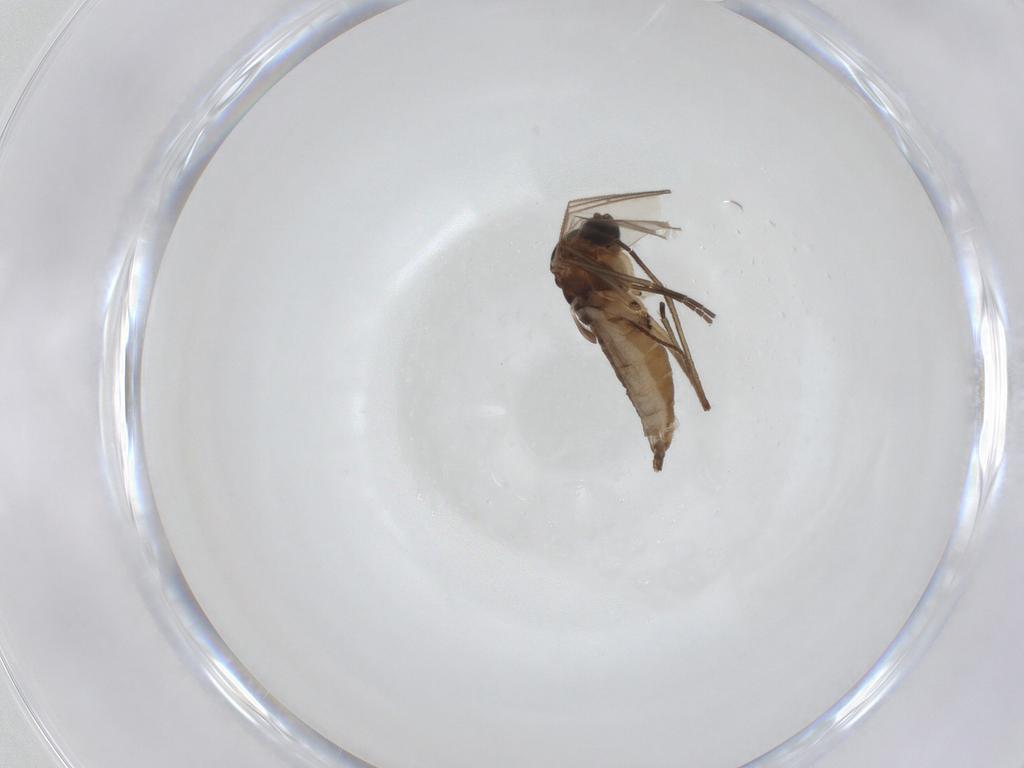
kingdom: Animalia
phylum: Arthropoda
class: Insecta
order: Diptera
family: Sciaridae
